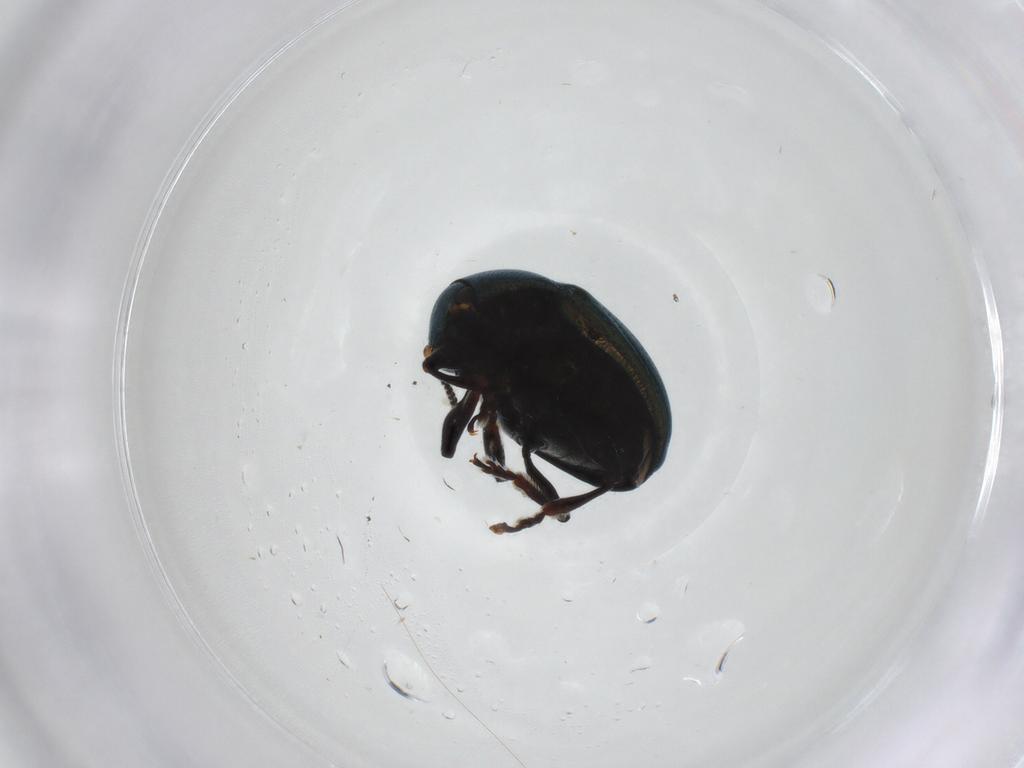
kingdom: Animalia
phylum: Arthropoda
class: Insecta
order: Coleoptera
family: Chrysomelidae
